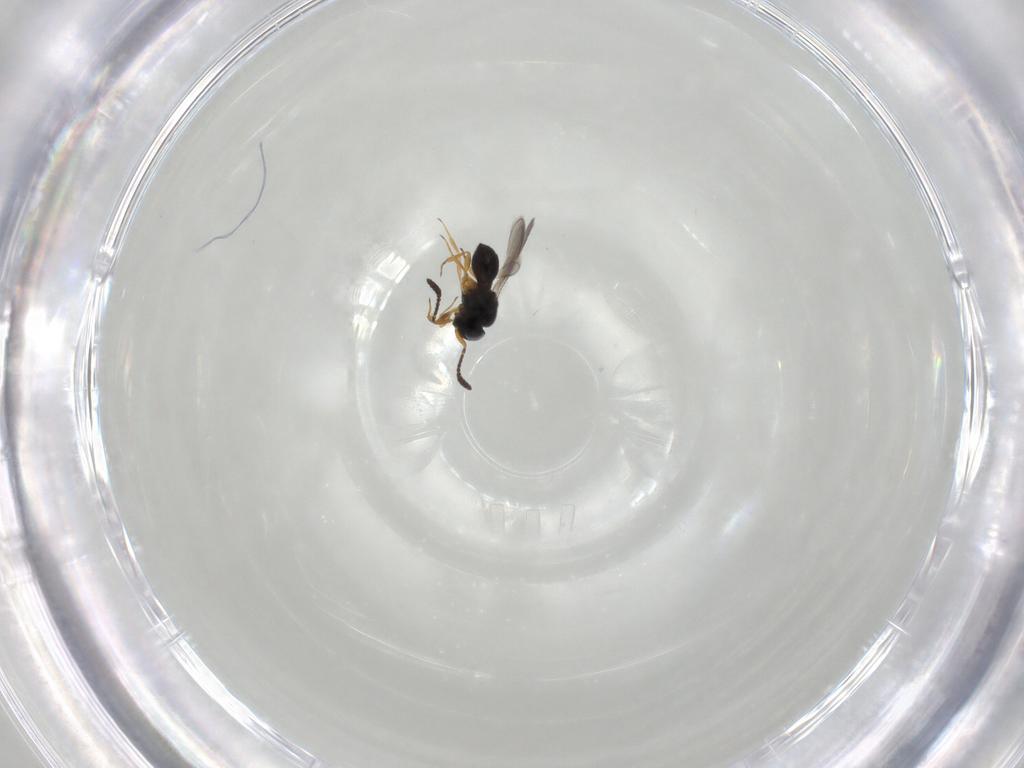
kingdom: Animalia
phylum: Arthropoda
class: Insecta
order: Hymenoptera
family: Scelionidae
